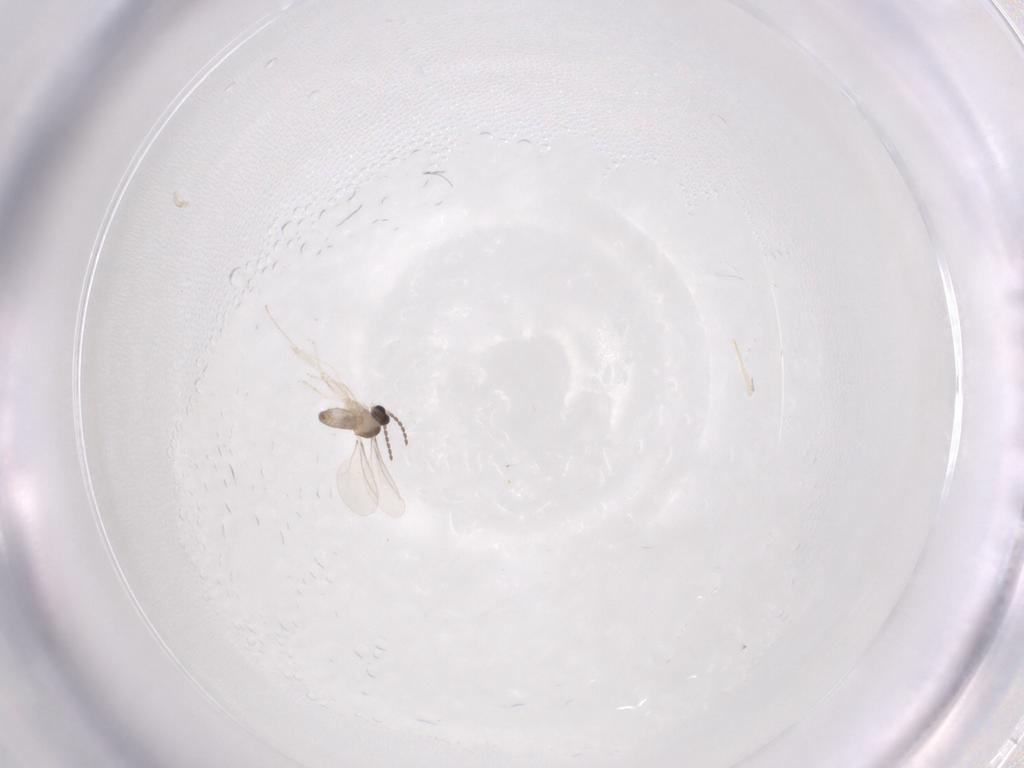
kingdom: Animalia
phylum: Arthropoda
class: Insecta
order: Diptera
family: Cecidomyiidae
